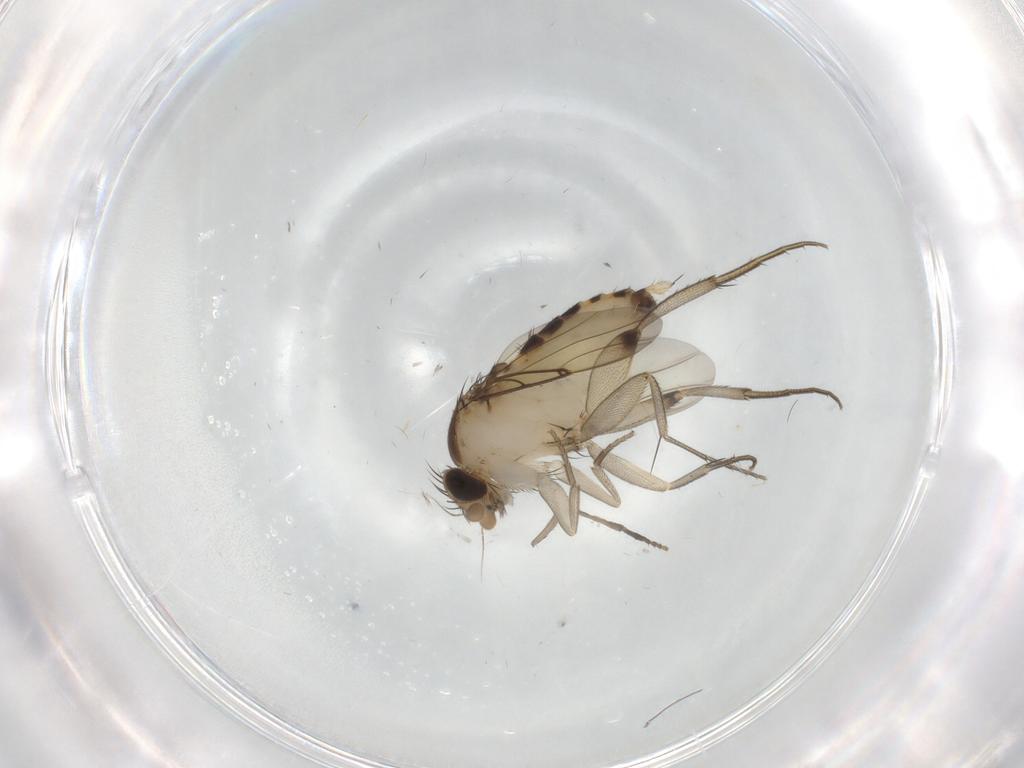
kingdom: Animalia
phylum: Arthropoda
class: Insecta
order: Diptera
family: Phoridae
